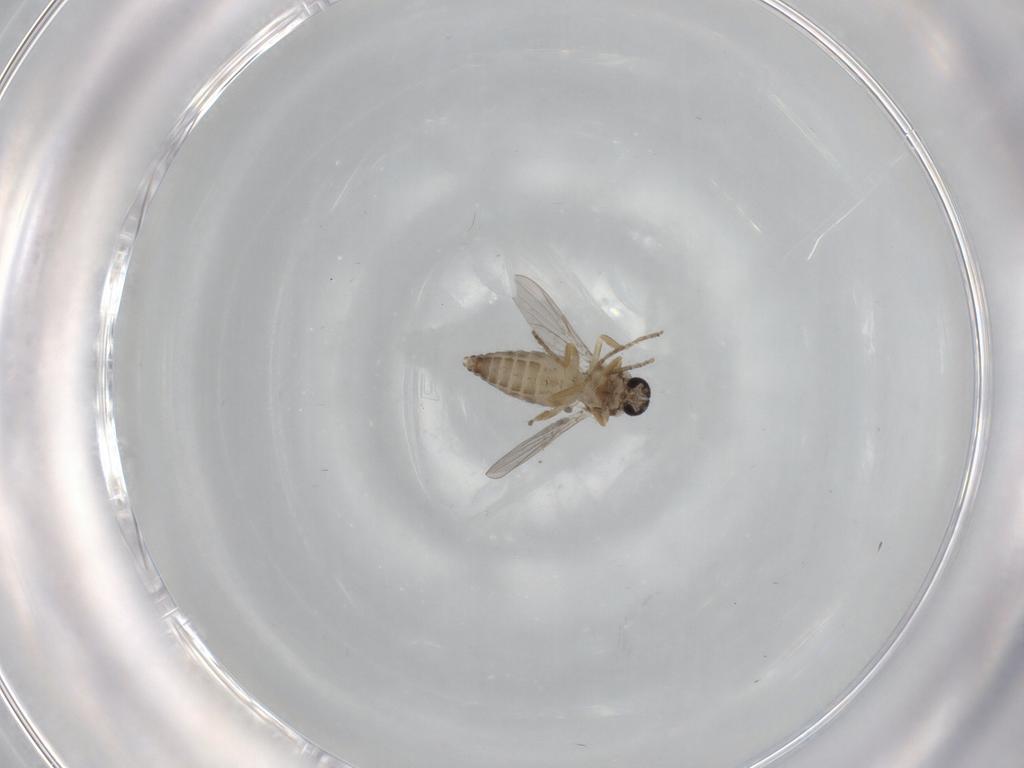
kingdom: Animalia
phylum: Arthropoda
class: Insecta
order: Diptera
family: Ceratopogonidae
